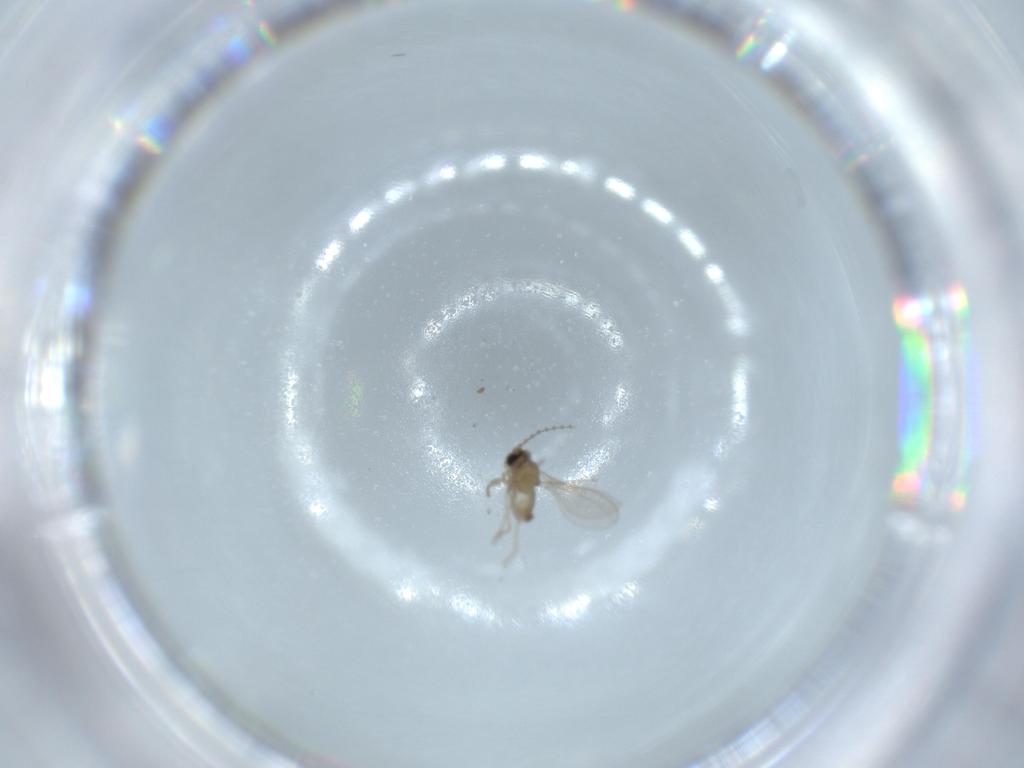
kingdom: Animalia
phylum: Arthropoda
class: Insecta
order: Diptera
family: Cecidomyiidae
